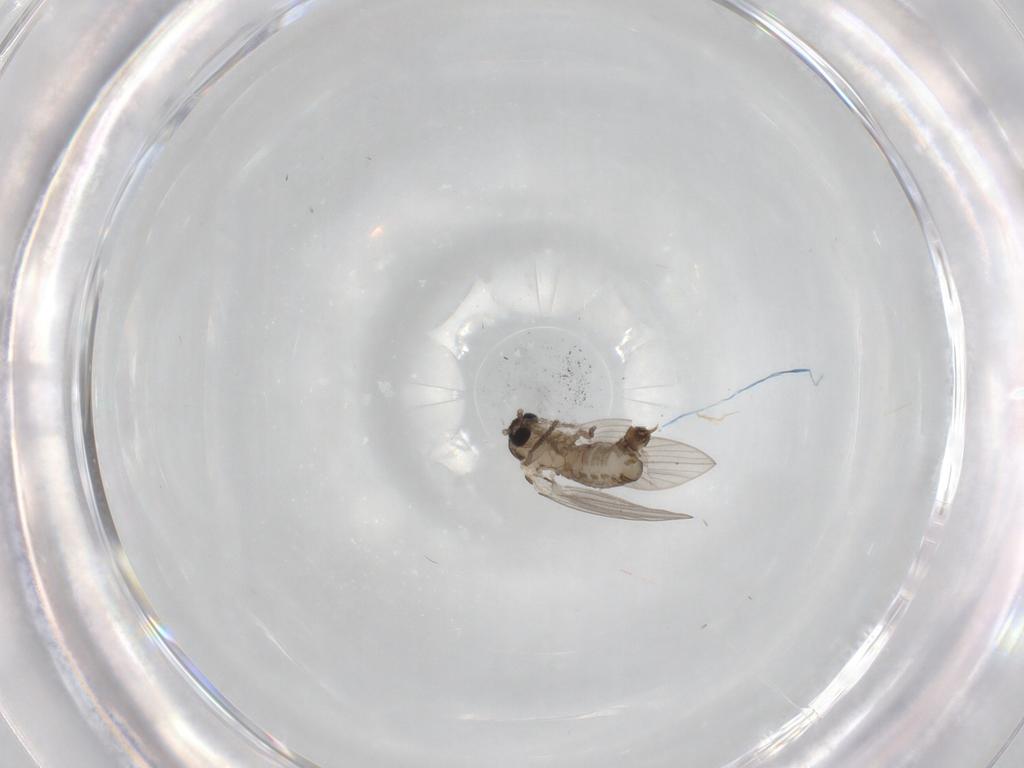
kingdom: Animalia
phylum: Arthropoda
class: Insecta
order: Diptera
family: Psychodidae
